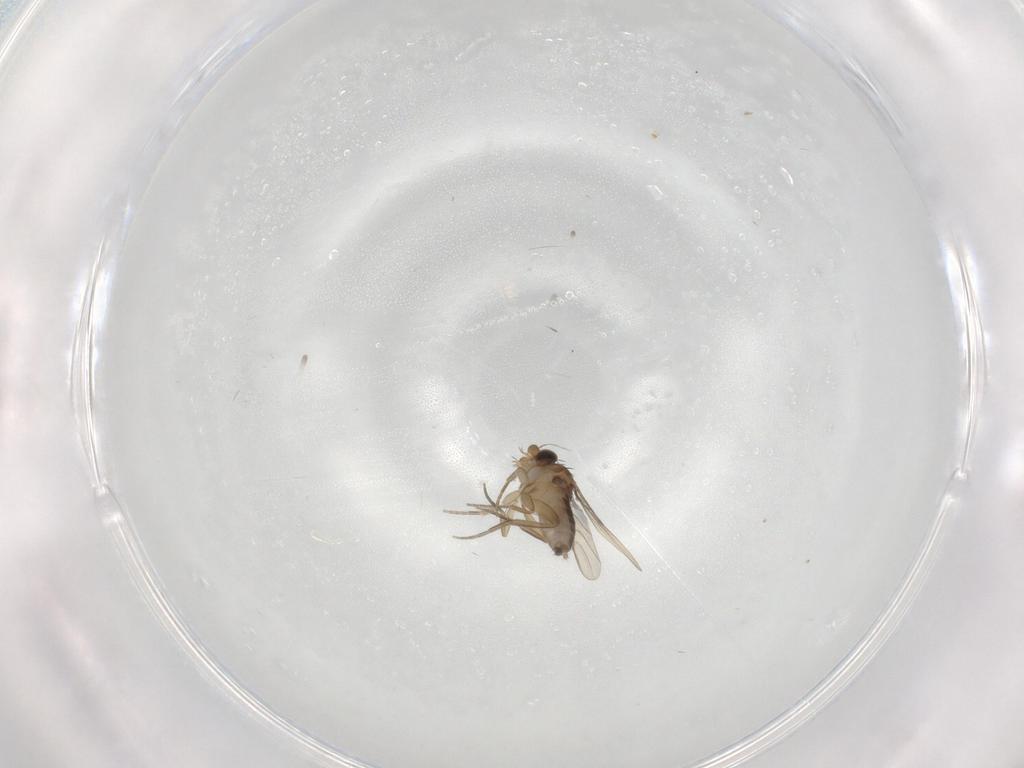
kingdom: Animalia
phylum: Arthropoda
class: Insecta
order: Diptera
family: Phoridae
